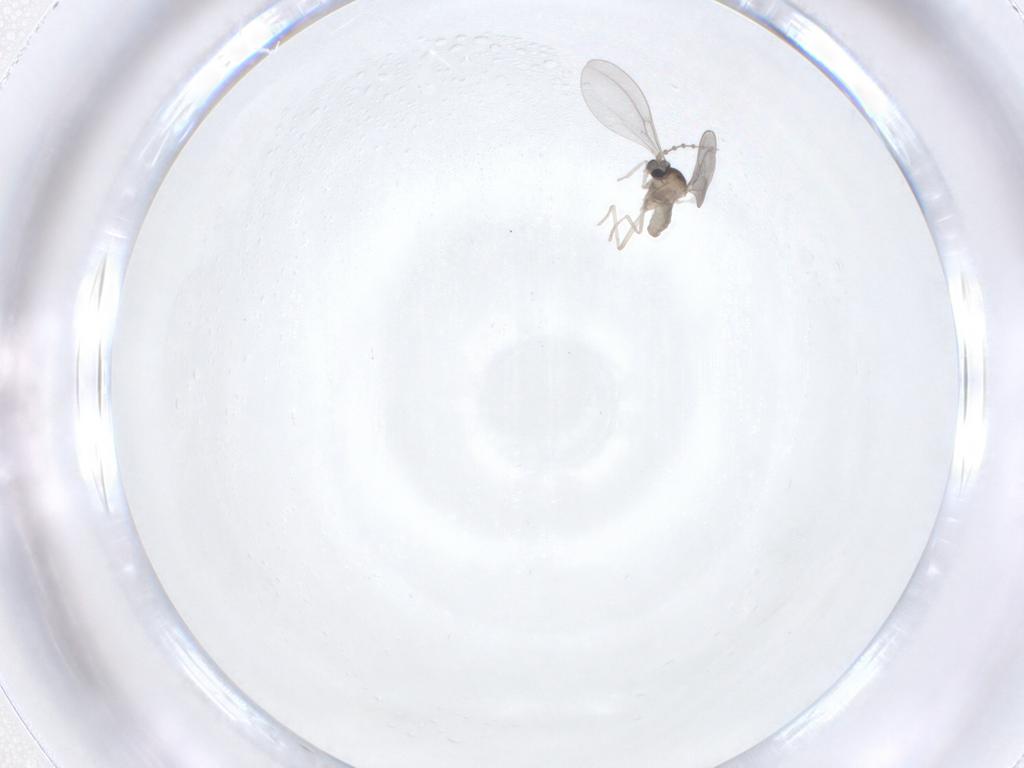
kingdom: Animalia
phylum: Arthropoda
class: Insecta
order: Diptera
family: Cecidomyiidae
